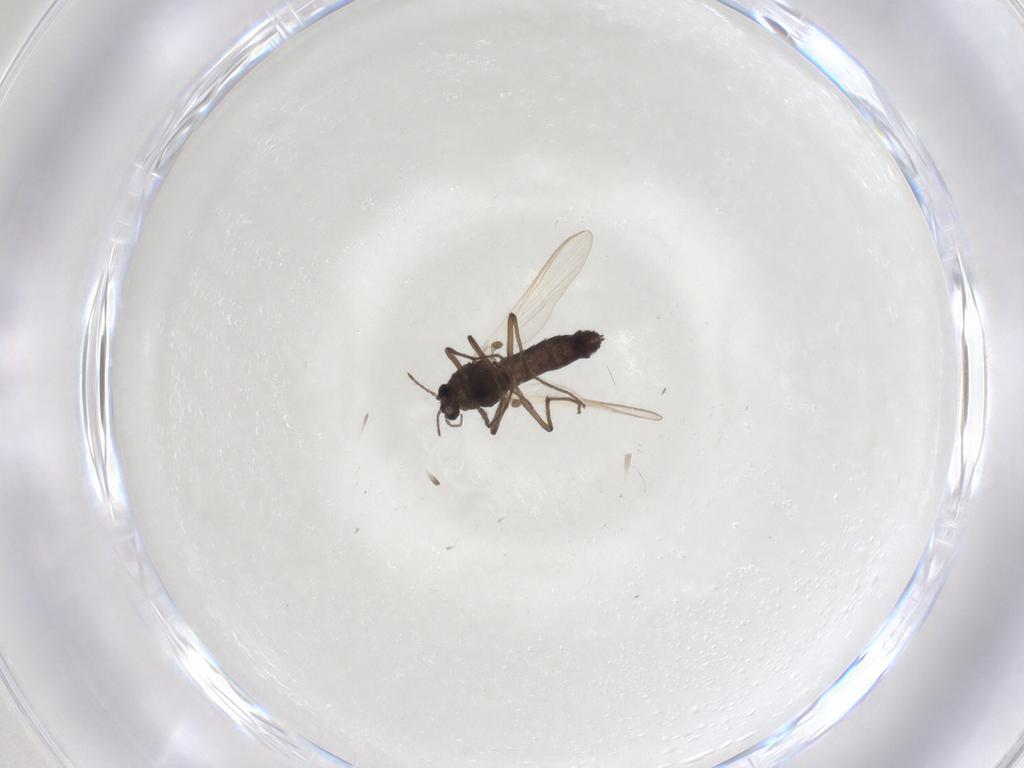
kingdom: Animalia
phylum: Arthropoda
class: Insecta
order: Diptera
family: Chironomidae
